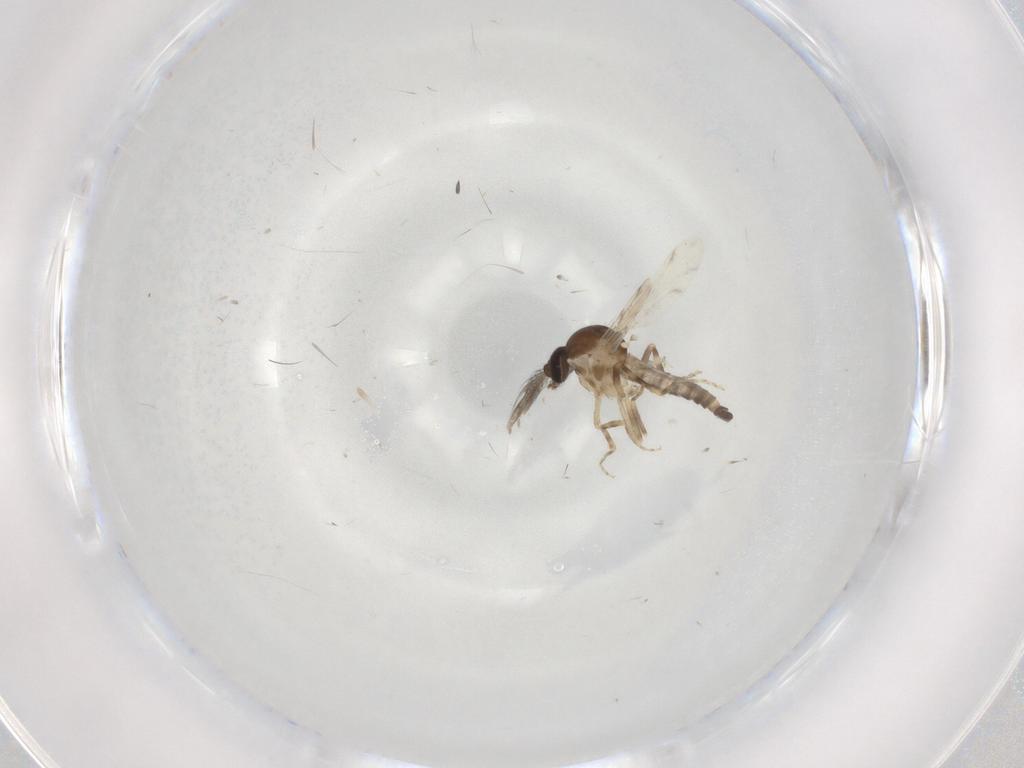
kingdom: Animalia
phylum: Arthropoda
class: Insecta
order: Diptera
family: Ceratopogonidae
